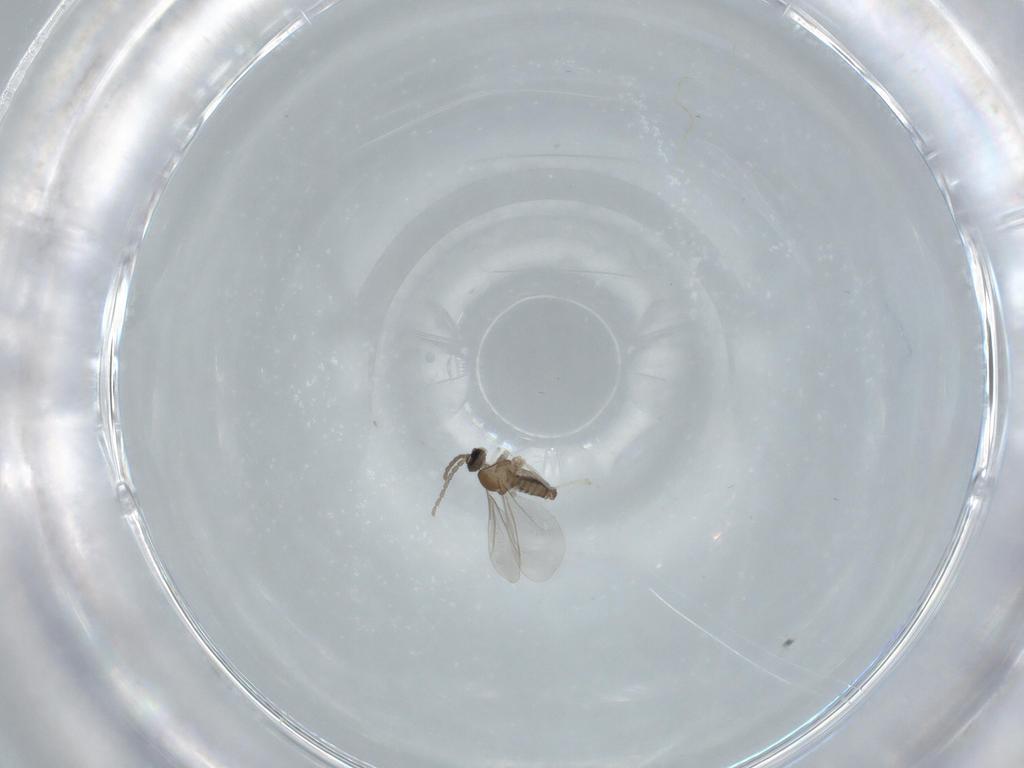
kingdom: Animalia
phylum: Arthropoda
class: Insecta
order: Diptera
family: Cecidomyiidae
